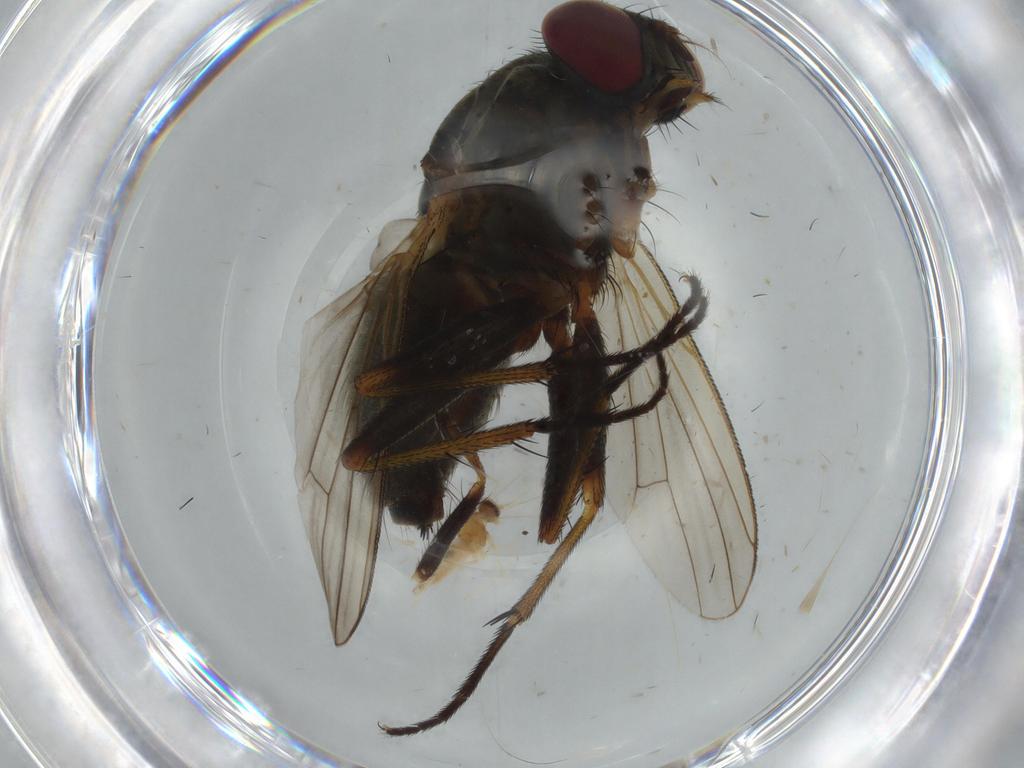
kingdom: Animalia
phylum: Arthropoda
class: Insecta
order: Diptera
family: Muscidae
